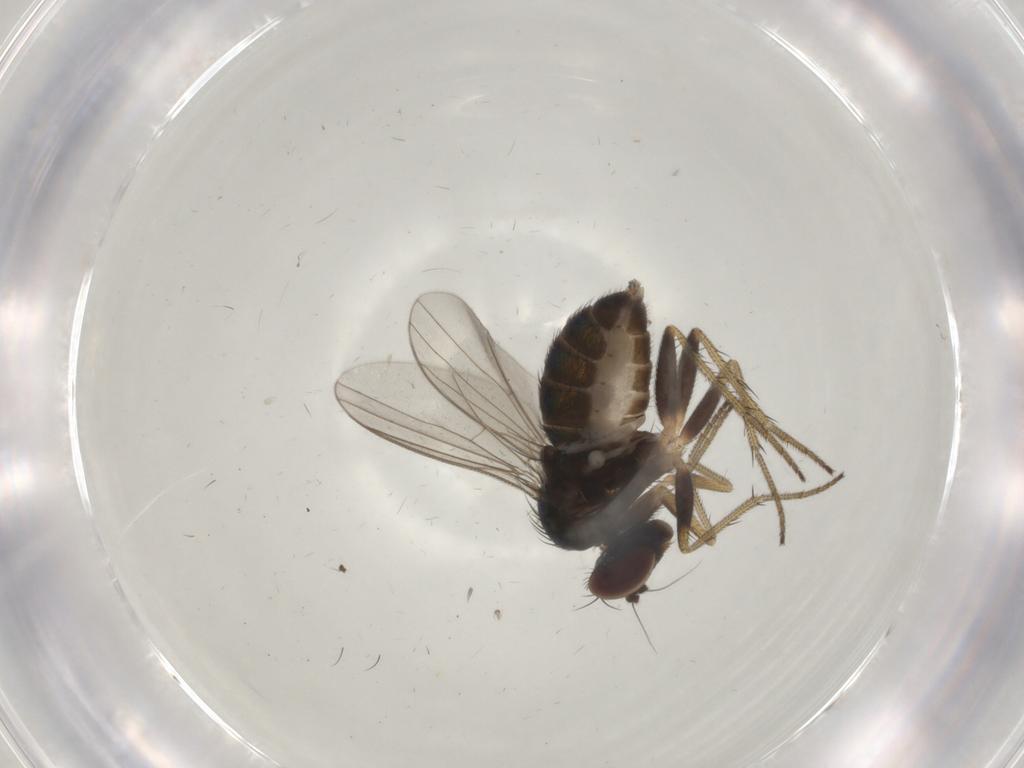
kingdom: Animalia
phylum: Arthropoda
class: Insecta
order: Diptera
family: Dolichopodidae
